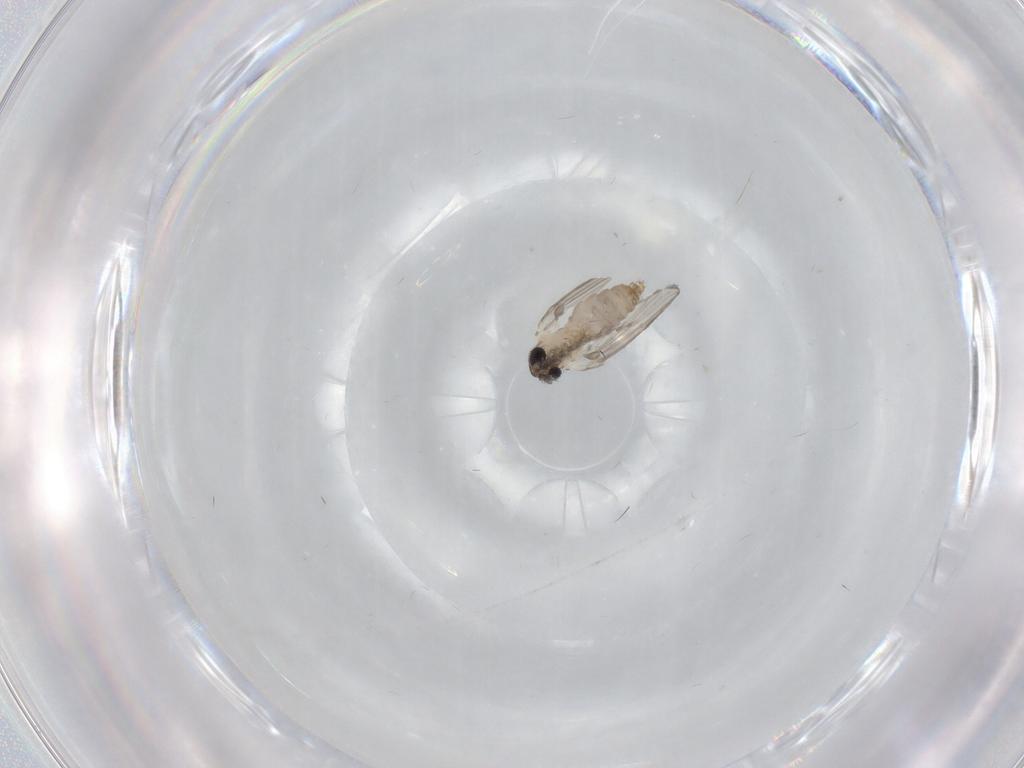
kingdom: Animalia
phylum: Arthropoda
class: Insecta
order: Diptera
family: Psychodidae
